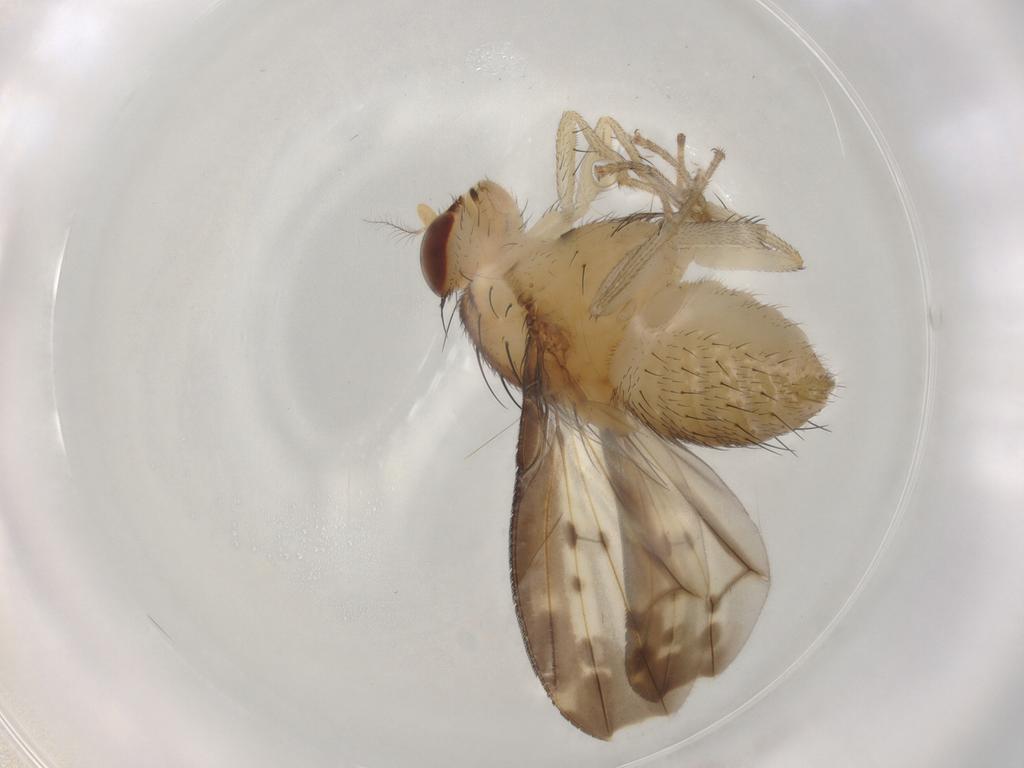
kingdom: Animalia
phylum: Arthropoda
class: Insecta
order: Diptera
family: Lauxaniidae
